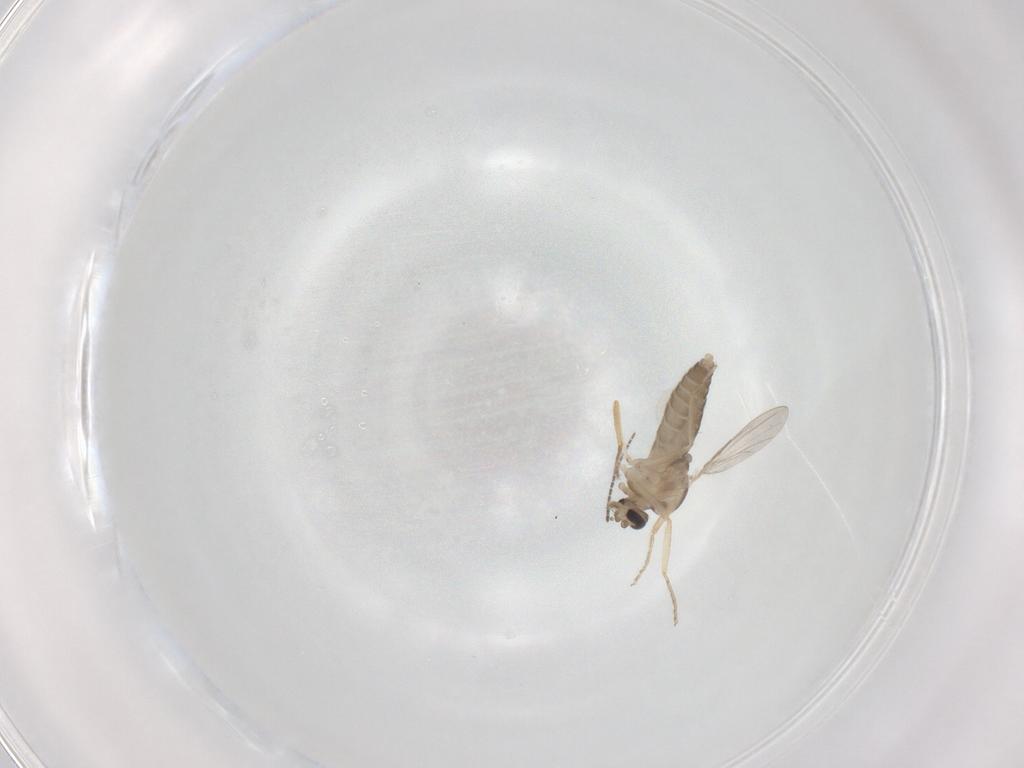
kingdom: Animalia
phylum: Arthropoda
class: Insecta
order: Diptera
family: Ceratopogonidae
